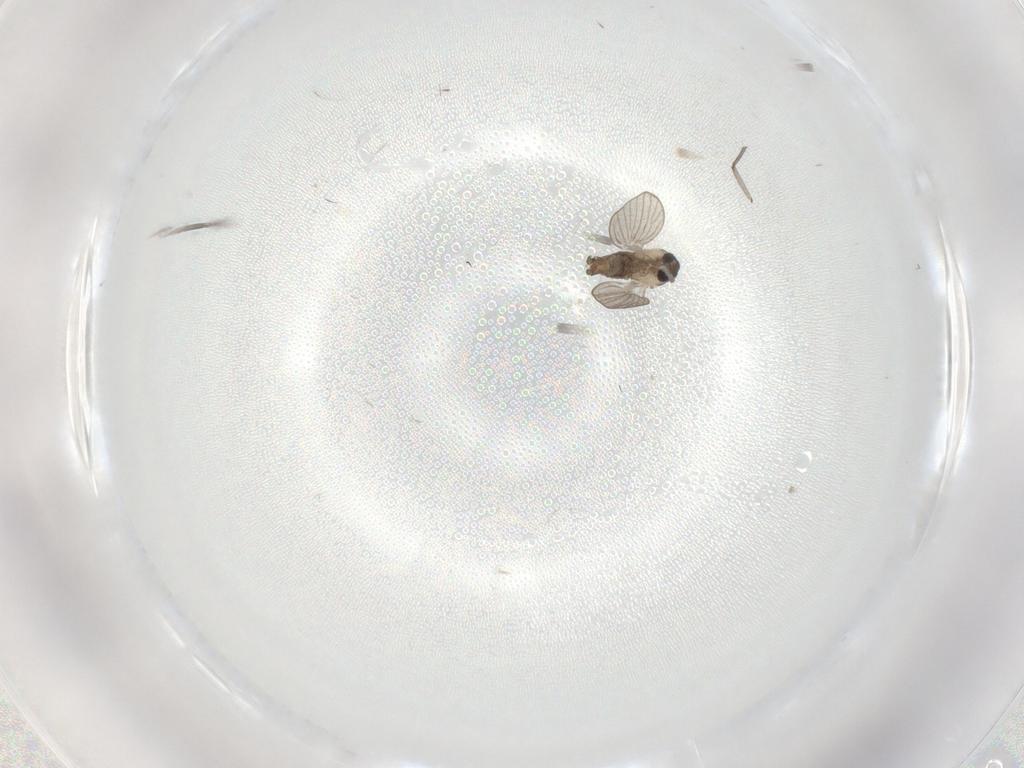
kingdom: Animalia
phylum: Arthropoda
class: Insecta
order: Diptera
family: Psychodidae
